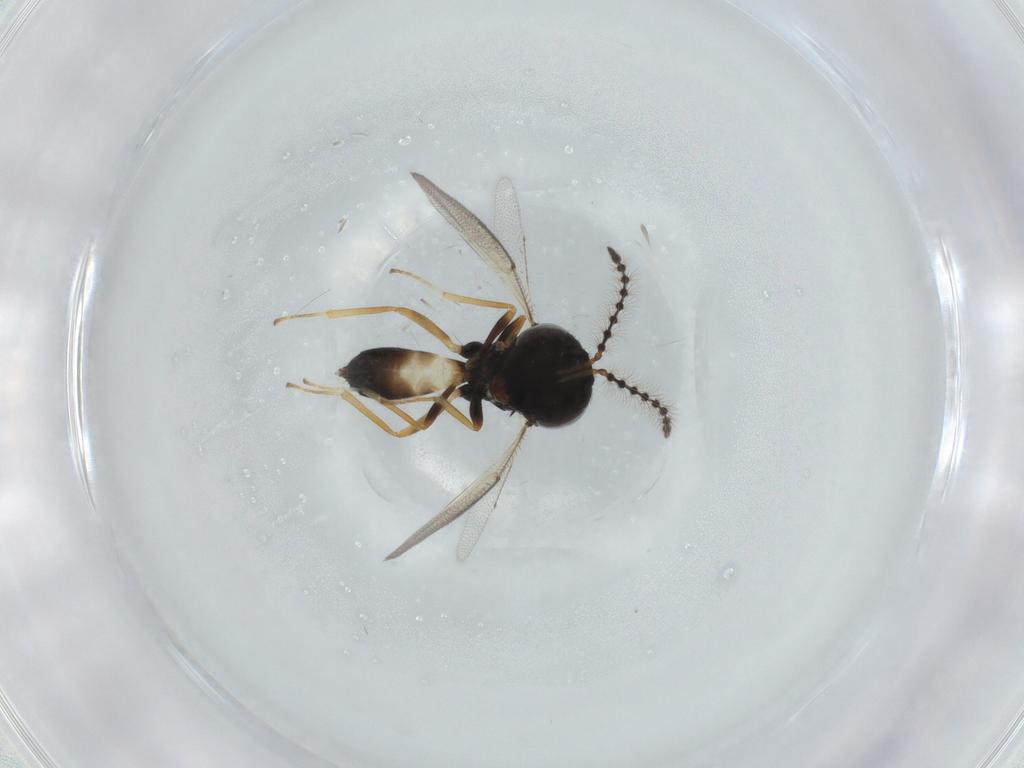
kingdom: Animalia
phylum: Arthropoda
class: Insecta
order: Hymenoptera
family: Pteromalidae
